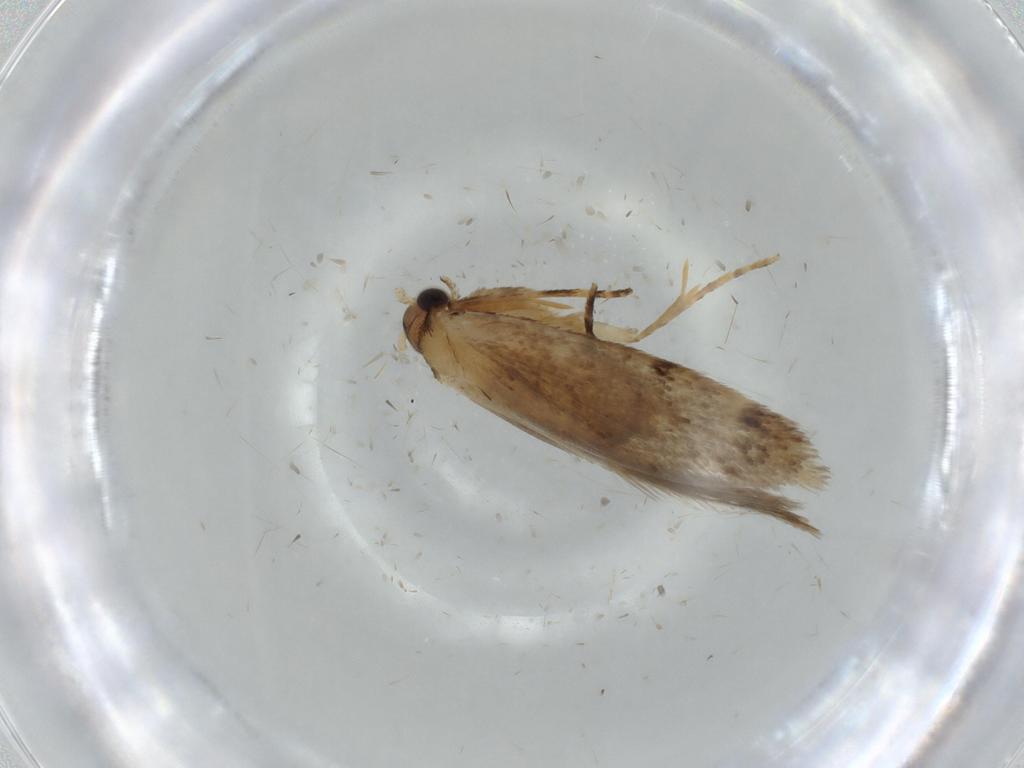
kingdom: Animalia
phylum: Arthropoda
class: Insecta
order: Lepidoptera
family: Tineidae
